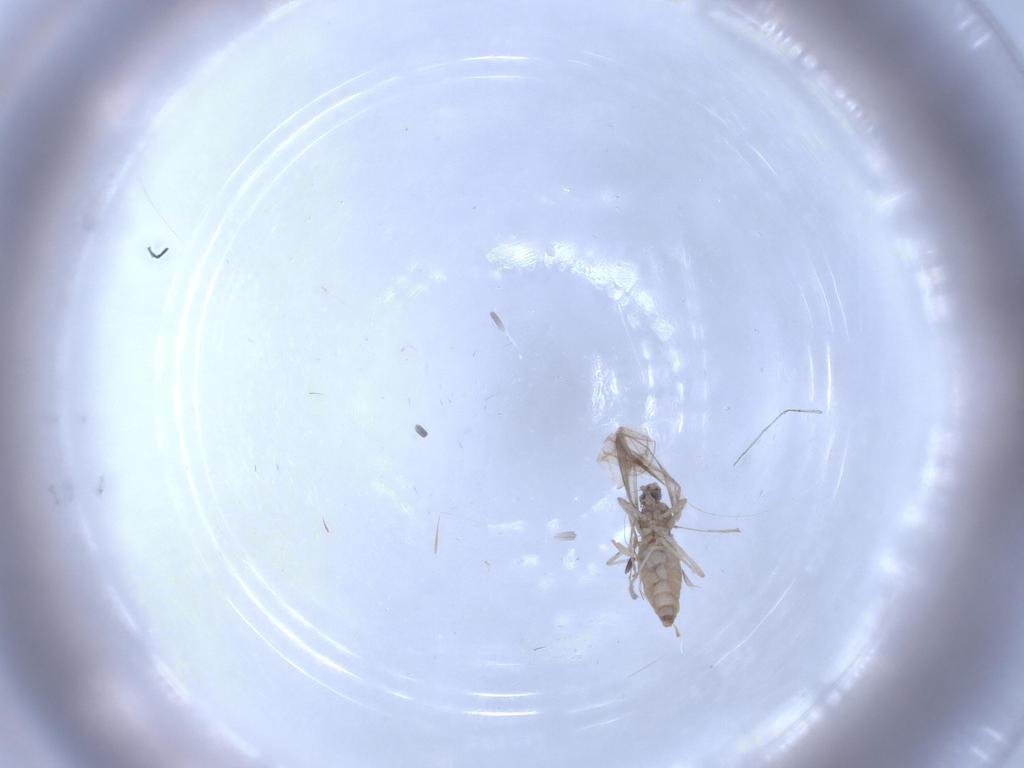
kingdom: Animalia
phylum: Arthropoda
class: Insecta
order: Diptera
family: Cecidomyiidae
